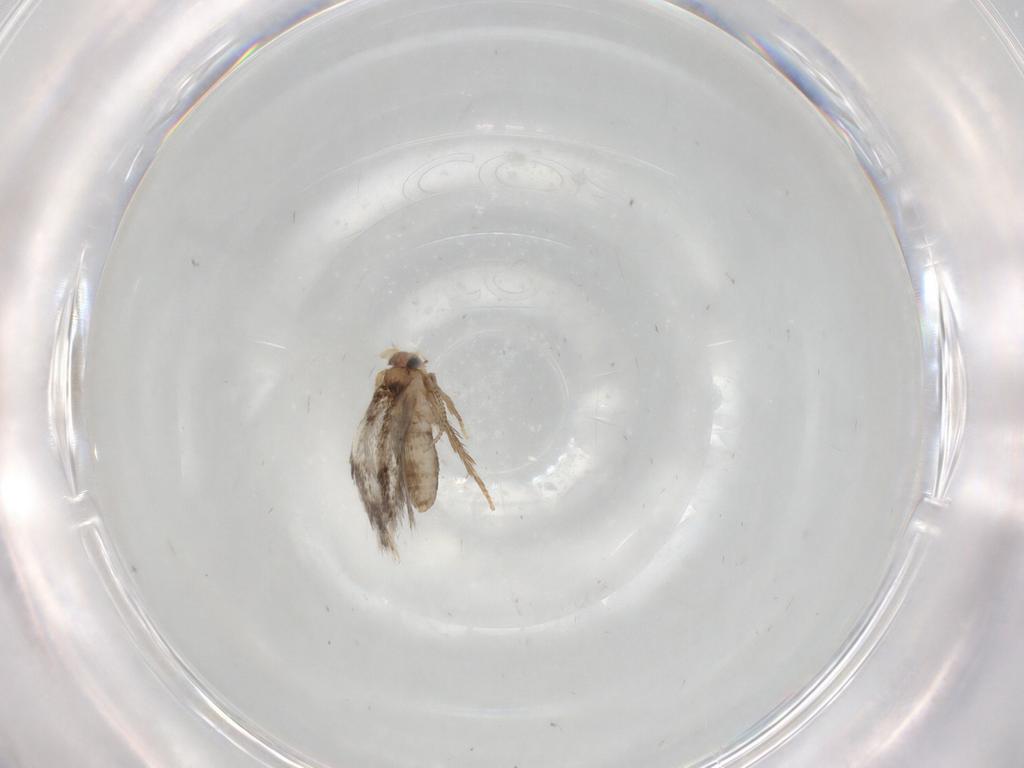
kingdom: Animalia
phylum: Arthropoda
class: Insecta
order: Lepidoptera
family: Nepticulidae
